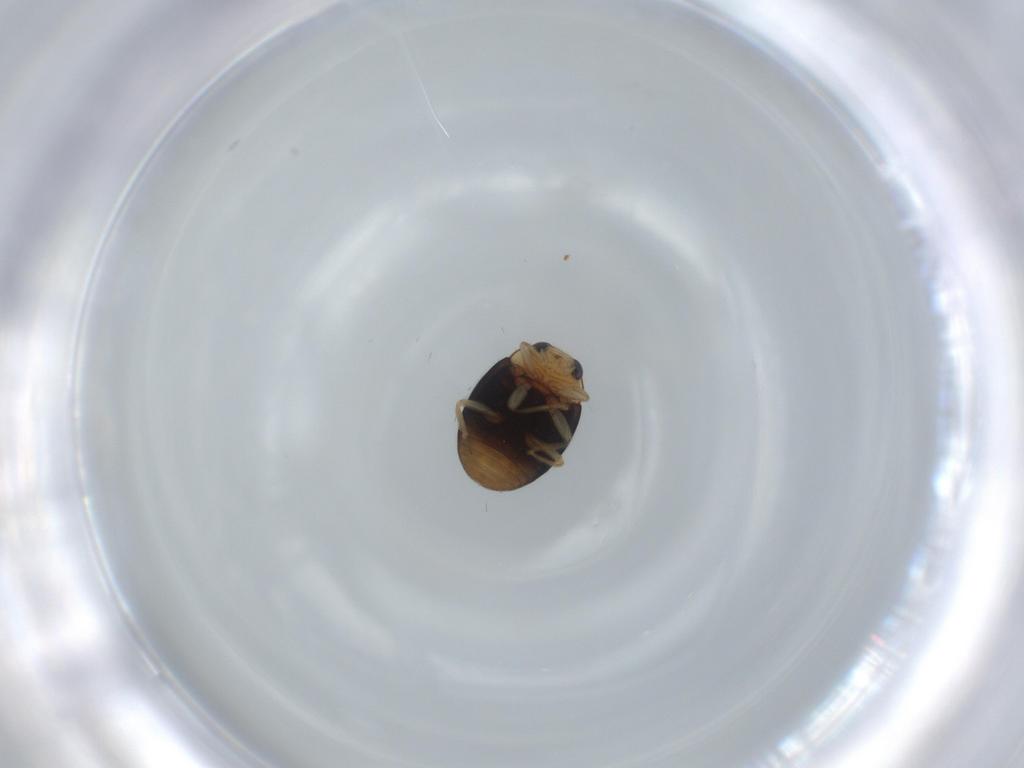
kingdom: Animalia
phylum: Arthropoda
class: Insecta
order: Coleoptera
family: Coccinellidae
